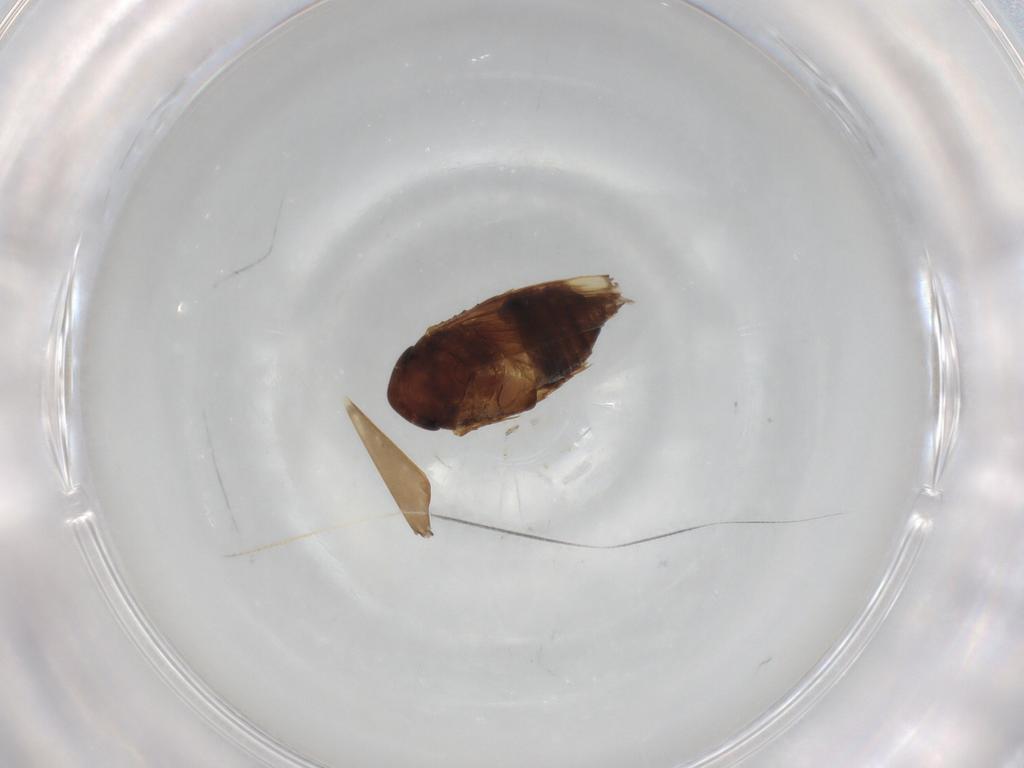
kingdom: Animalia
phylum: Arthropoda
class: Insecta
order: Hemiptera
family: Cicadellidae
